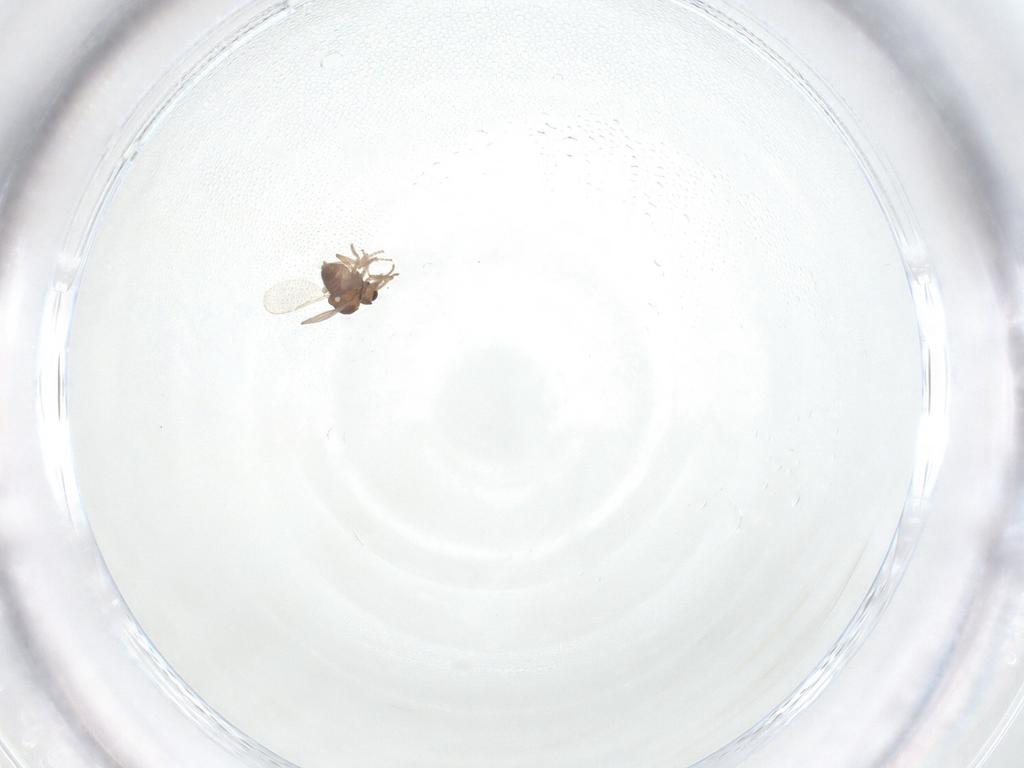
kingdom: Animalia
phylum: Arthropoda
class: Insecta
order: Diptera
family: Ceratopogonidae
